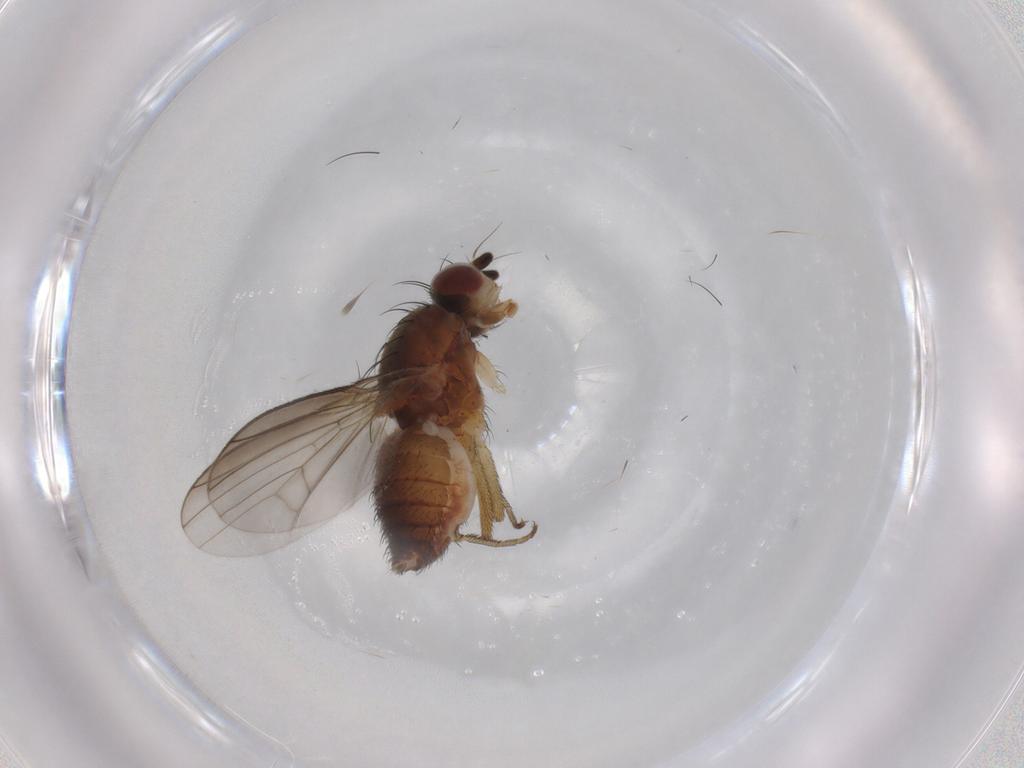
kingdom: Animalia
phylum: Arthropoda
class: Insecta
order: Diptera
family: Heleomyzidae
